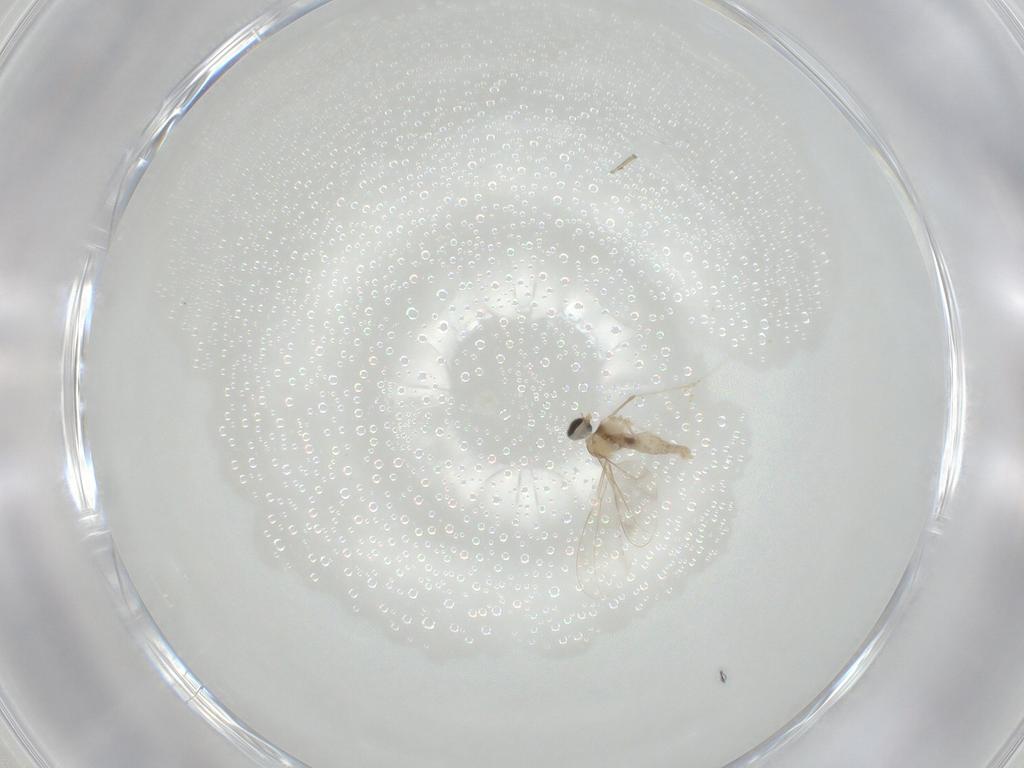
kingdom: Animalia
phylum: Arthropoda
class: Insecta
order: Diptera
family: Cecidomyiidae
